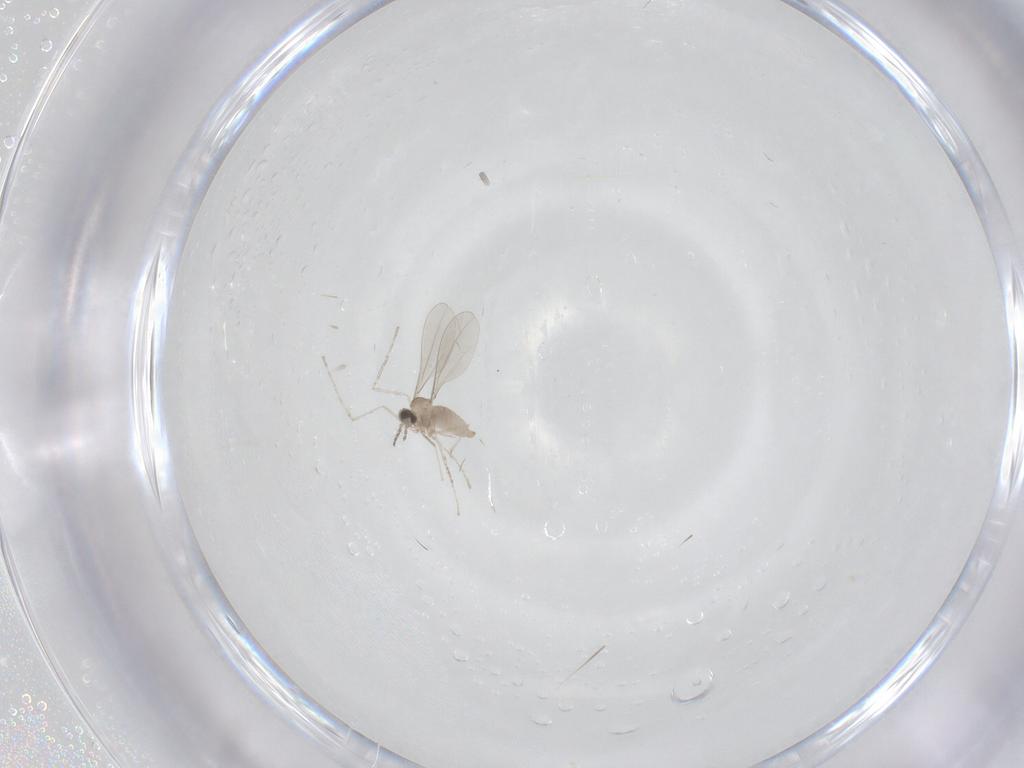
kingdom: Animalia
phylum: Arthropoda
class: Insecta
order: Diptera
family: Cecidomyiidae
